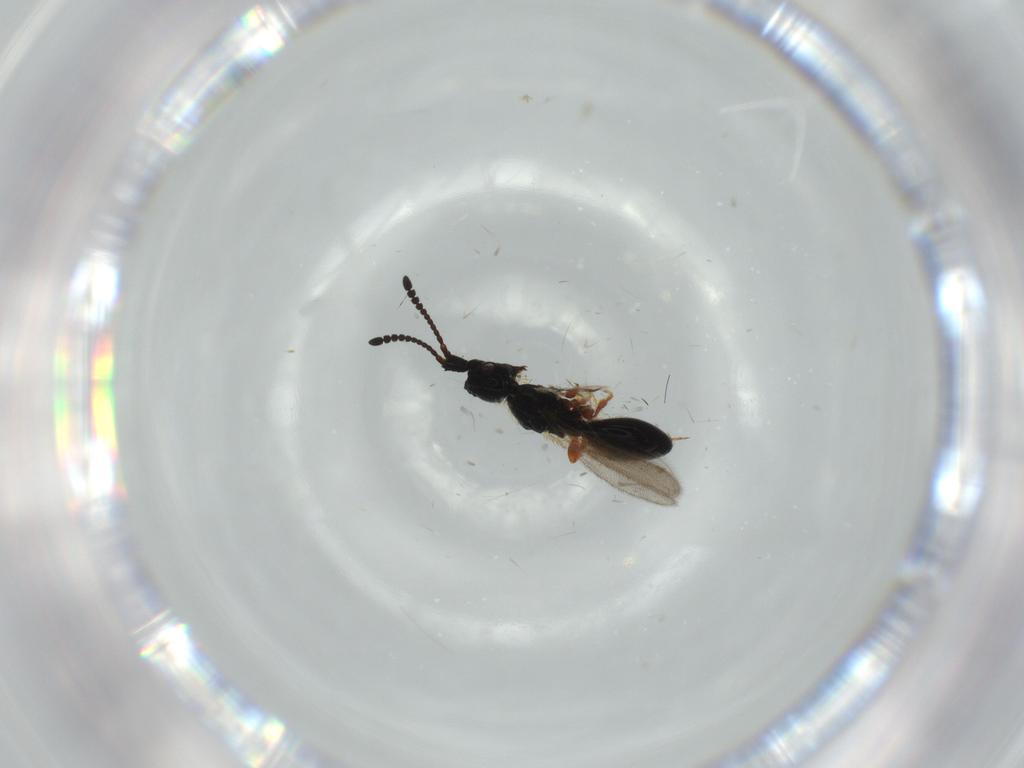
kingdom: Animalia
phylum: Arthropoda
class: Insecta
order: Hymenoptera
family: Diapriidae
